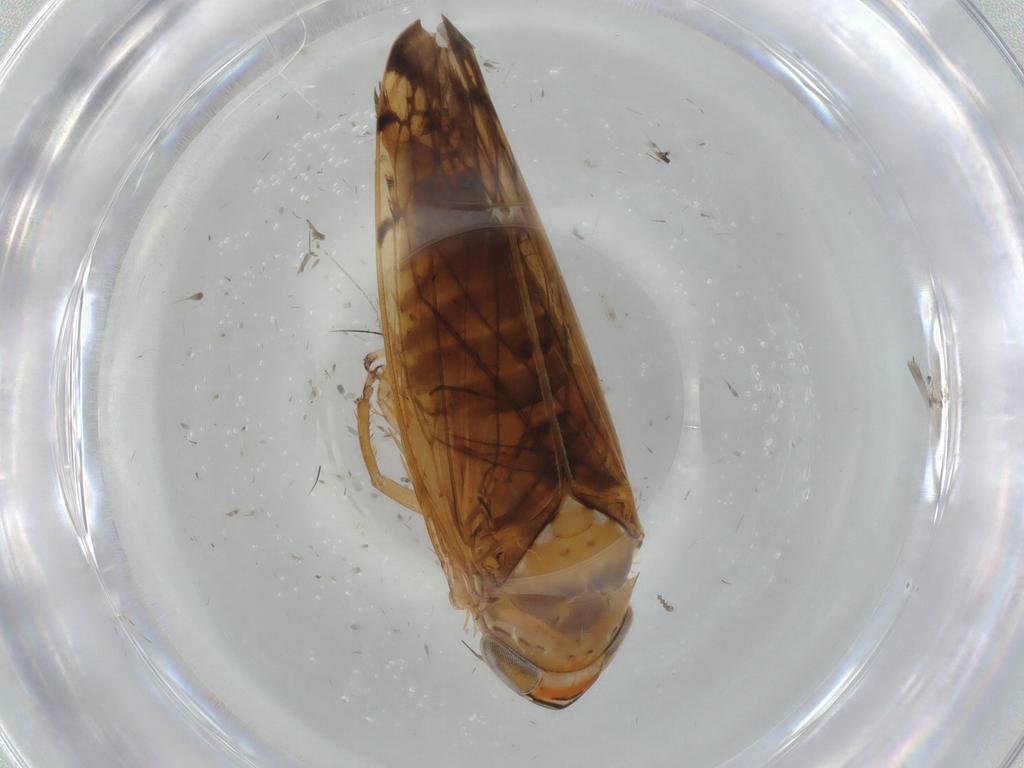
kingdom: Animalia
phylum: Arthropoda
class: Insecta
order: Hemiptera
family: Cicadellidae
